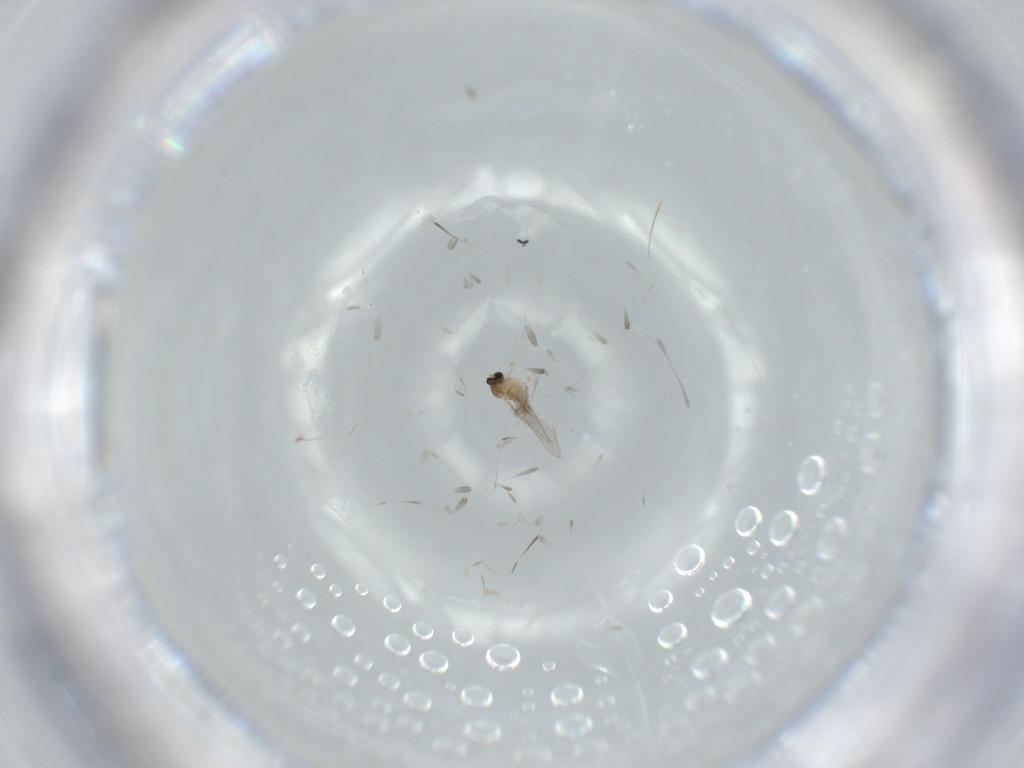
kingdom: Animalia
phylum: Arthropoda
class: Insecta
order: Diptera
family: Cecidomyiidae
